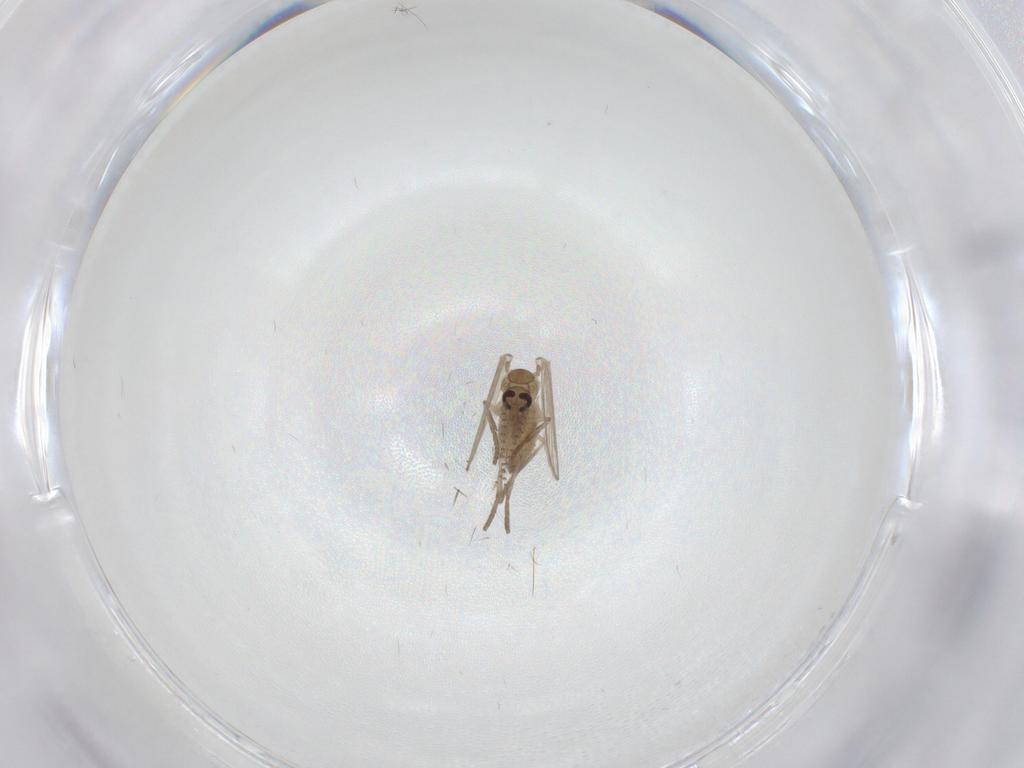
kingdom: Animalia
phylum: Arthropoda
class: Insecta
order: Diptera
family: Psychodidae
